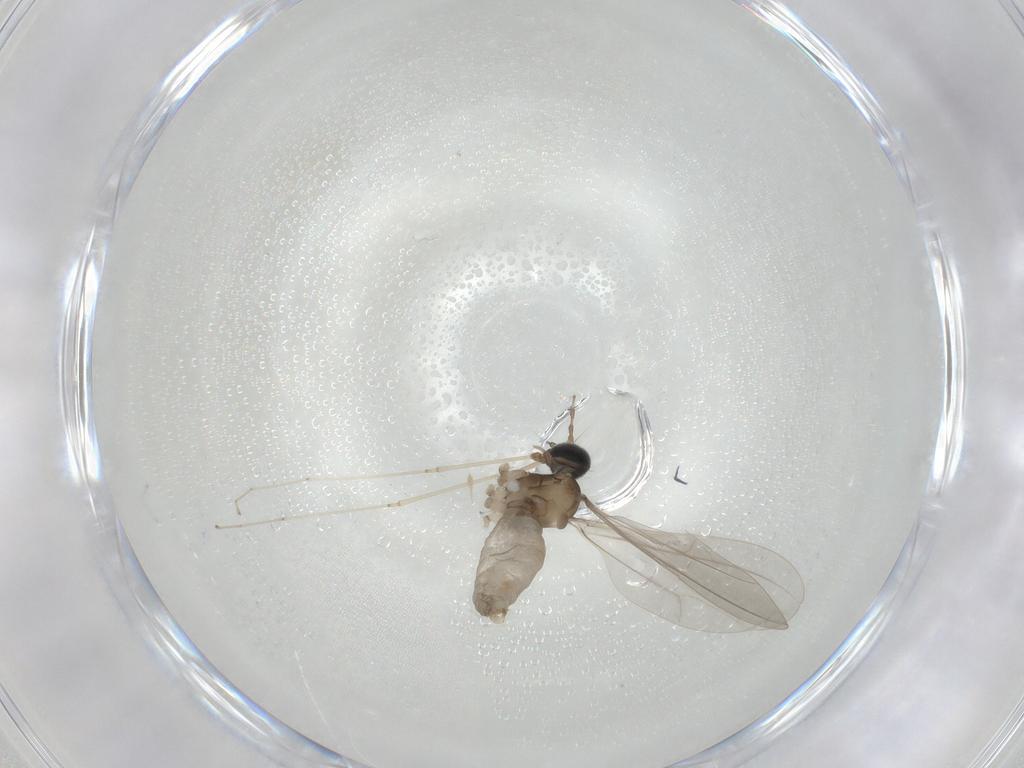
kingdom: Animalia
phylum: Arthropoda
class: Insecta
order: Diptera
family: Cecidomyiidae
